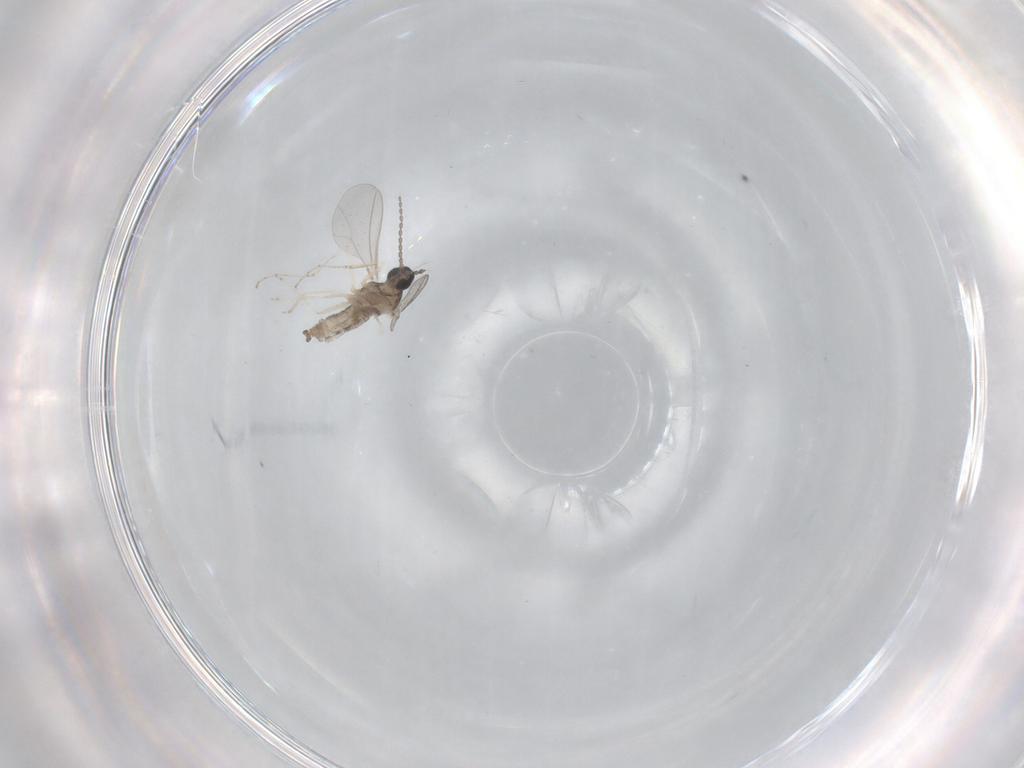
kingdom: Animalia
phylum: Arthropoda
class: Insecta
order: Diptera
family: Cecidomyiidae
